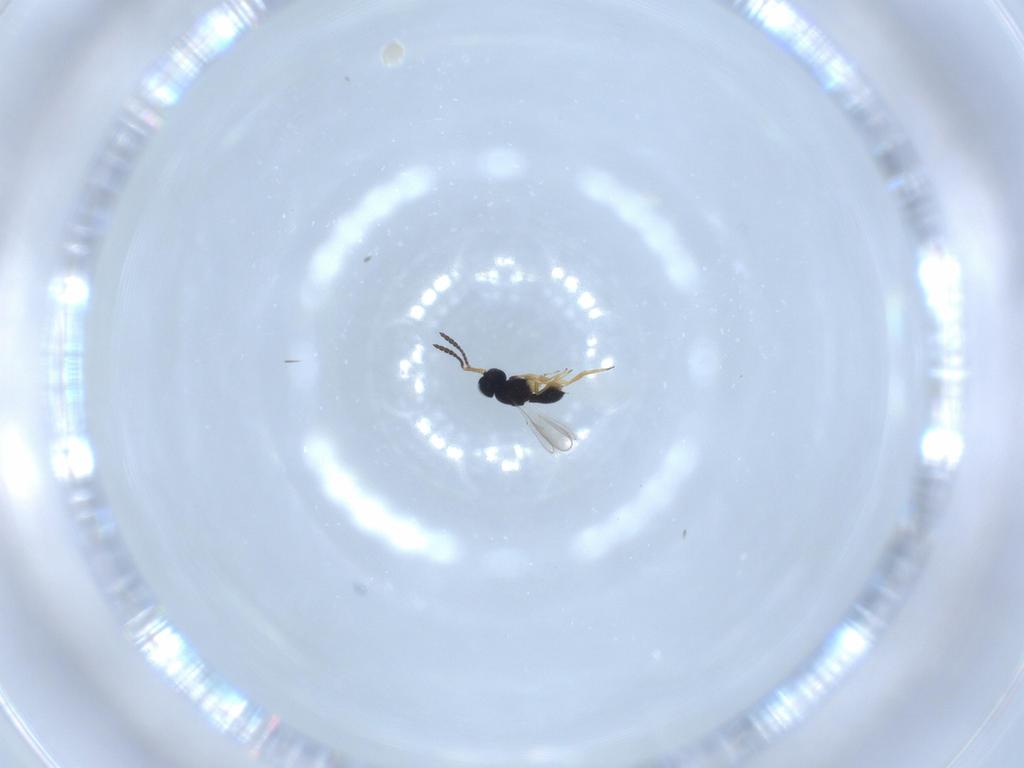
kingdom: Animalia
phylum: Arthropoda
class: Insecta
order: Hymenoptera
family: Scelionidae
